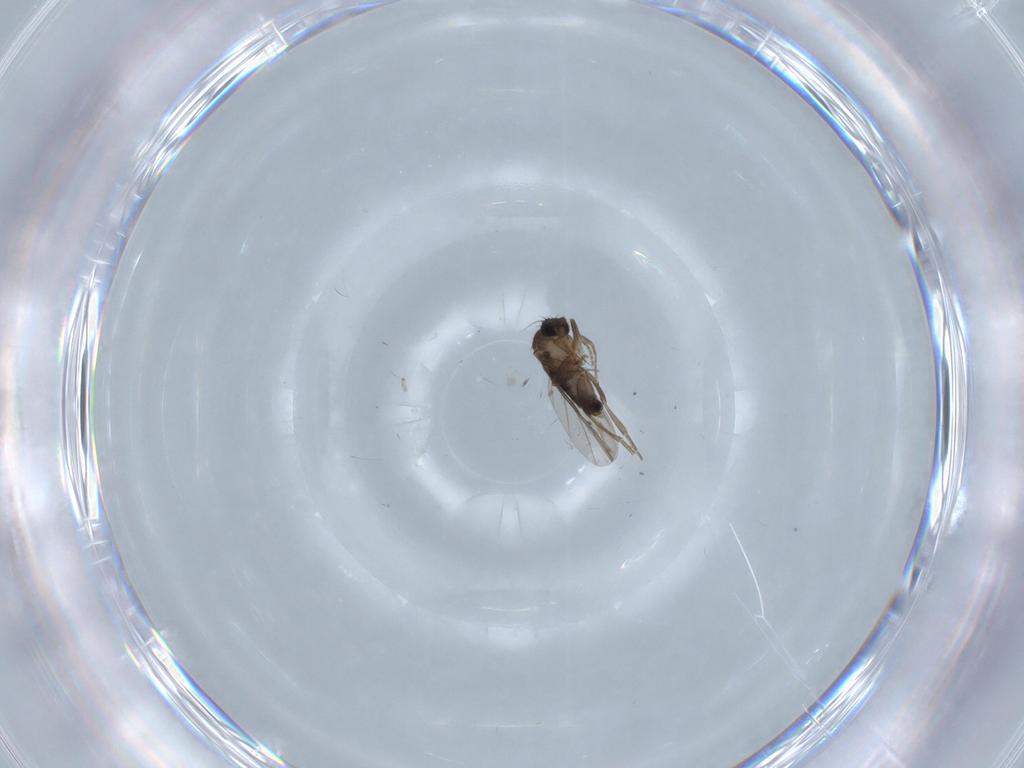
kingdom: Animalia
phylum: Arthropoda
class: Insecta
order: Diptera
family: Phoridae
